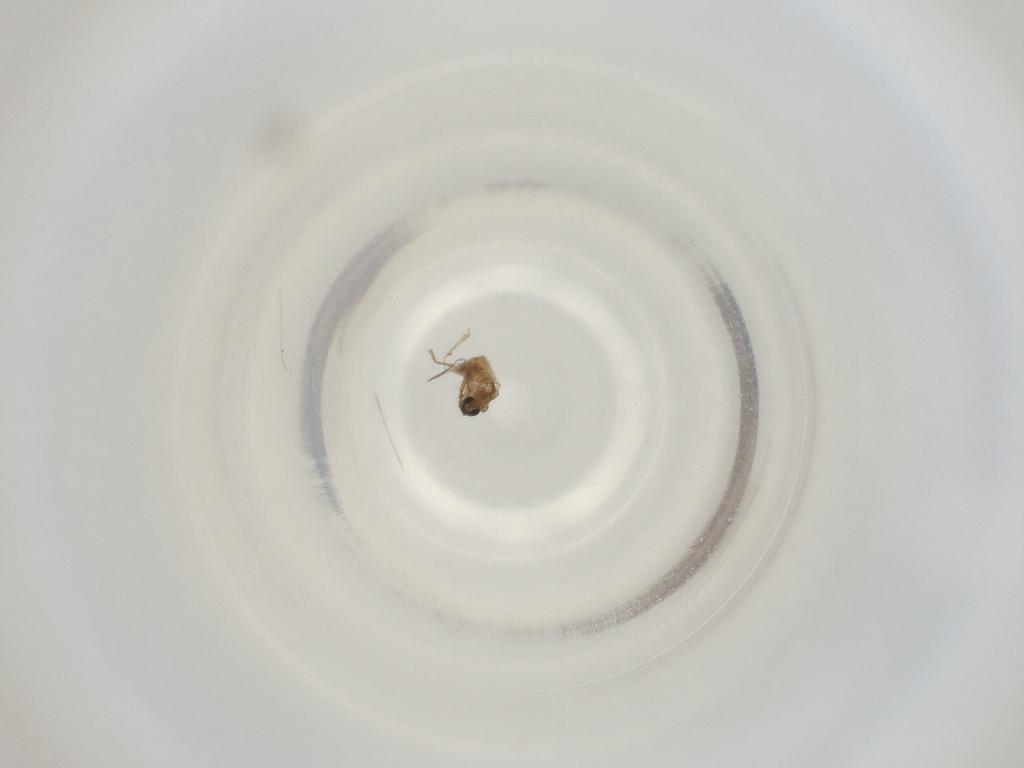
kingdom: Animalia
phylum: Arthropoda
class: Insecta
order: Diptera
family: Cecidomyiidae
